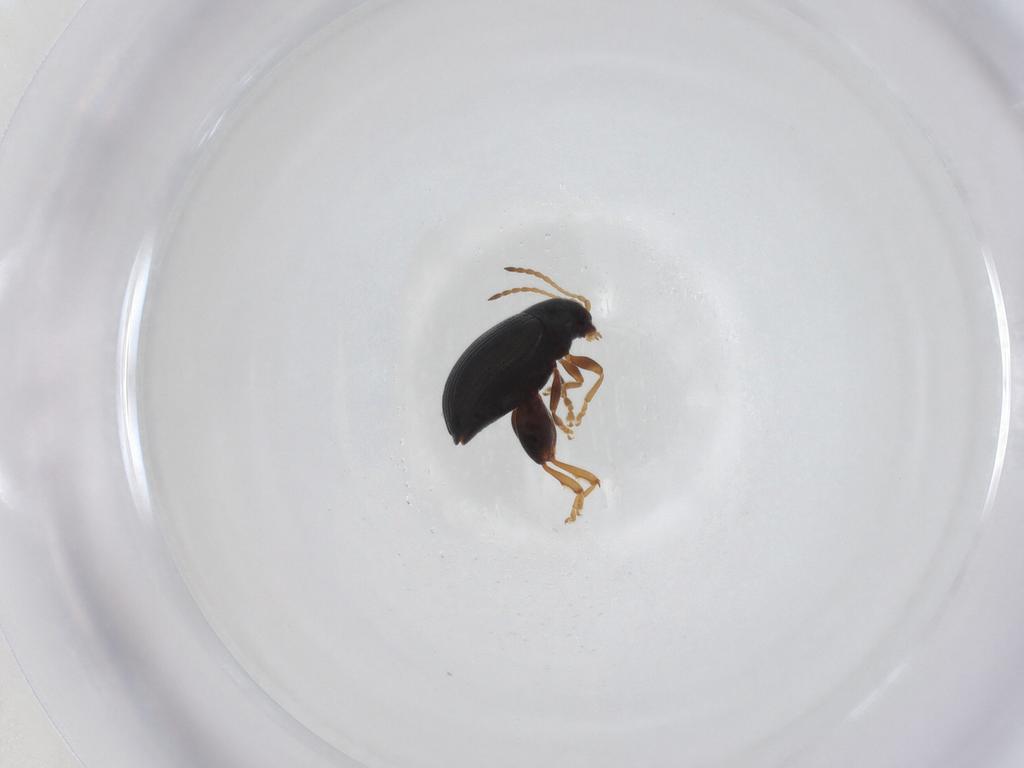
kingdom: Animalia
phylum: Arthropoda
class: Insecta
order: Coleoptera
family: Chrysomelidae
